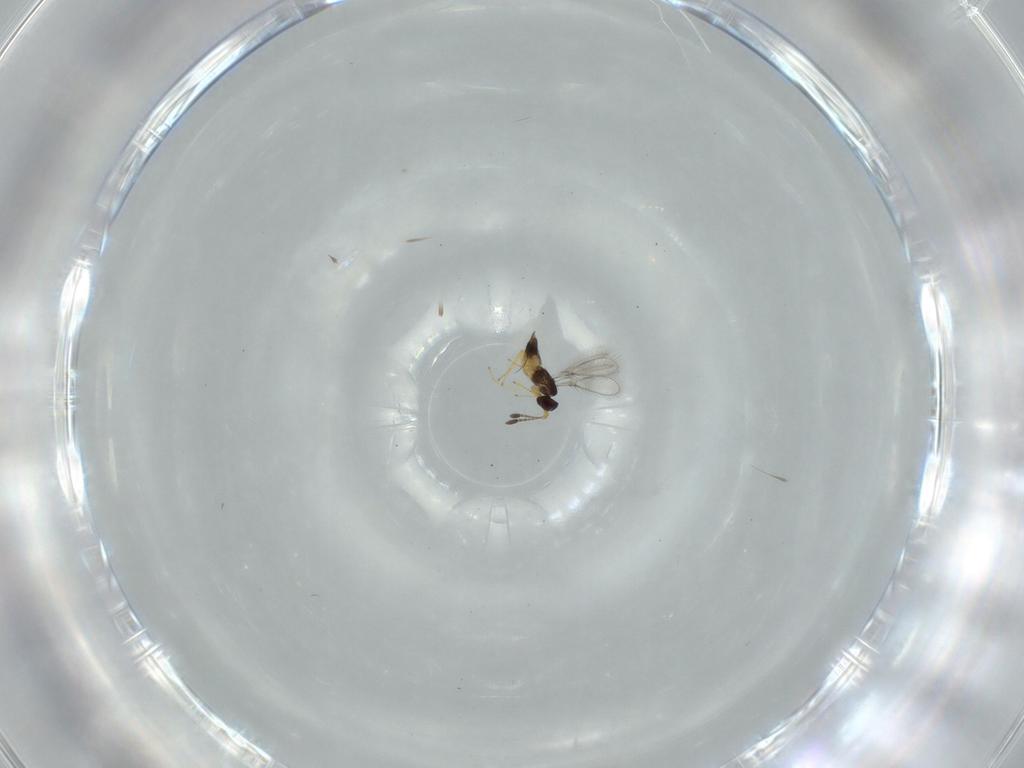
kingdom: Animalia
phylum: Arthropoda
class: Insecta
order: Hymenoptera
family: Mymaridae
